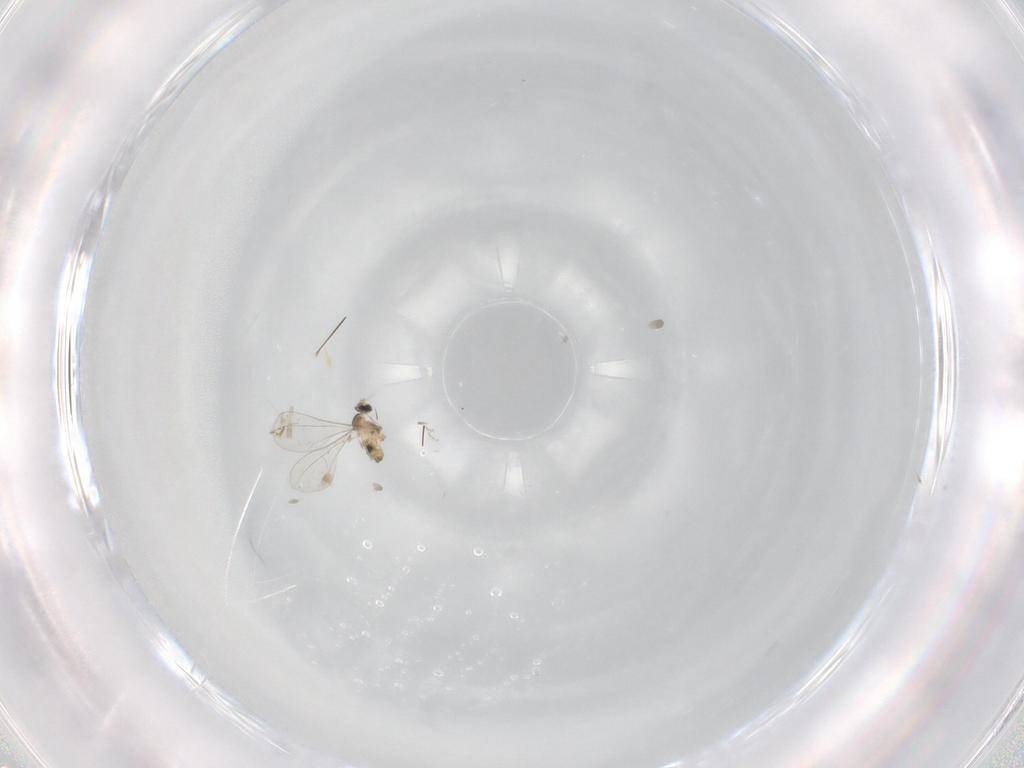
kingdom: Animalia
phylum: Arthropoda
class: Insecta
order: Diptera
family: Cecidomyiidae
